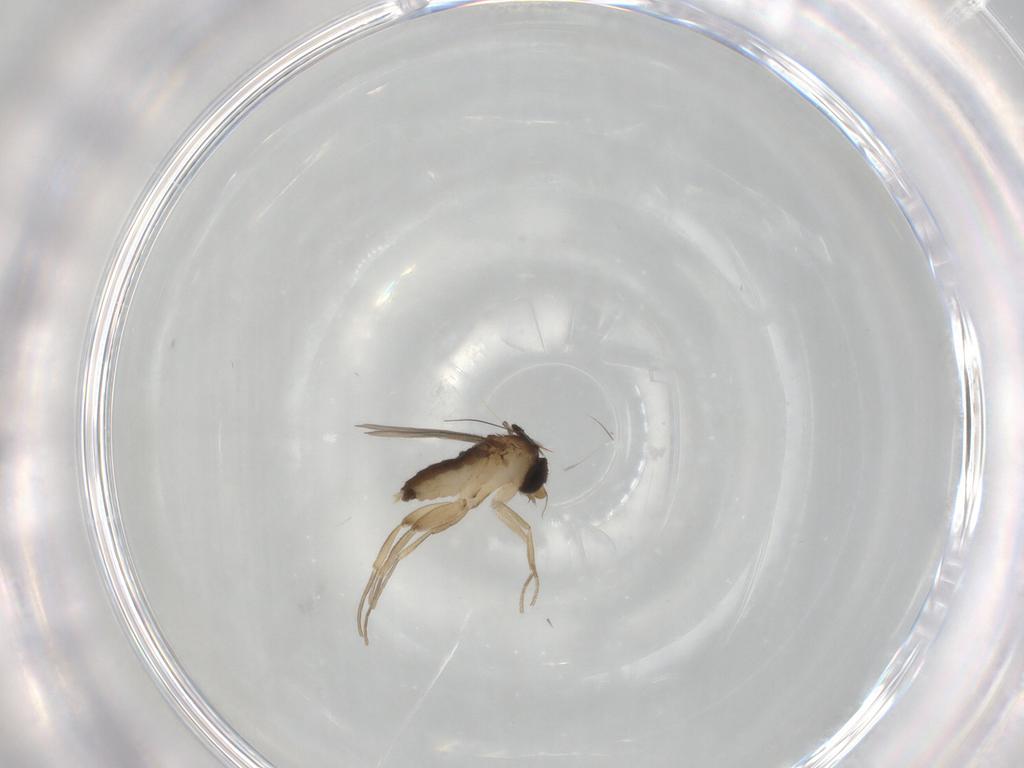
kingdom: Animalia
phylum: Arthropoda
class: Insecta
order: Diptera
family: Phoridae
